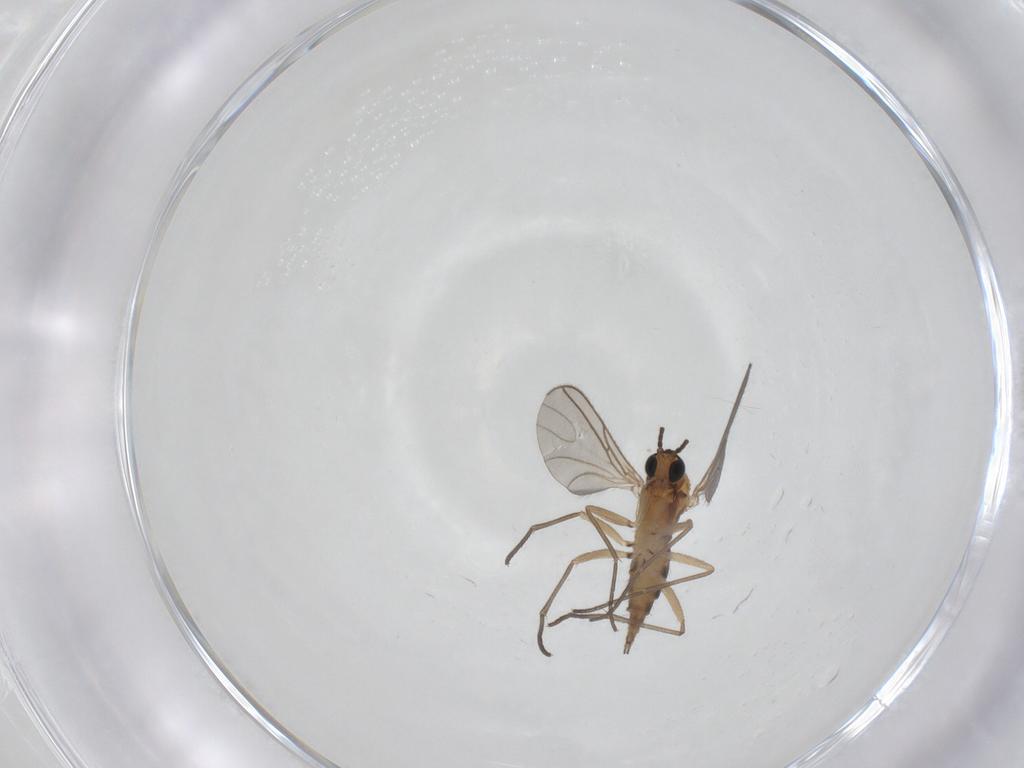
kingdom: Animalia
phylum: Arthropoda
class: Insecta
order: Diptera
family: Sciaridae
